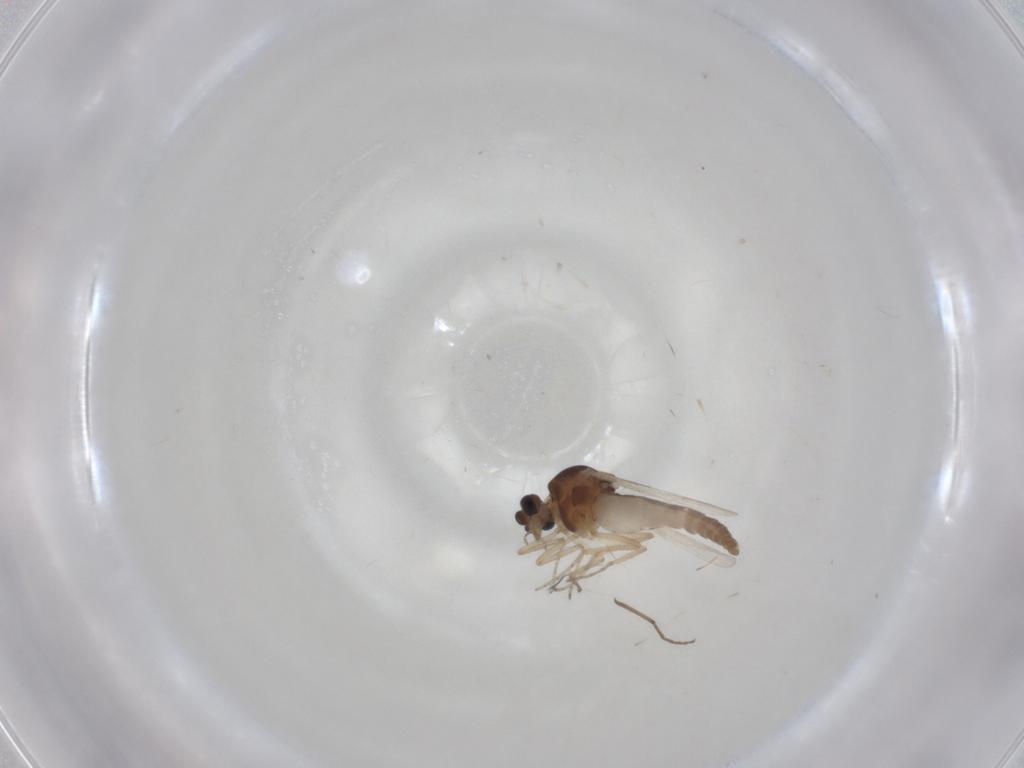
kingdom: Animalia
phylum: Arthropoda
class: Insecta
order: Diptera
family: Ceratopogonidae
